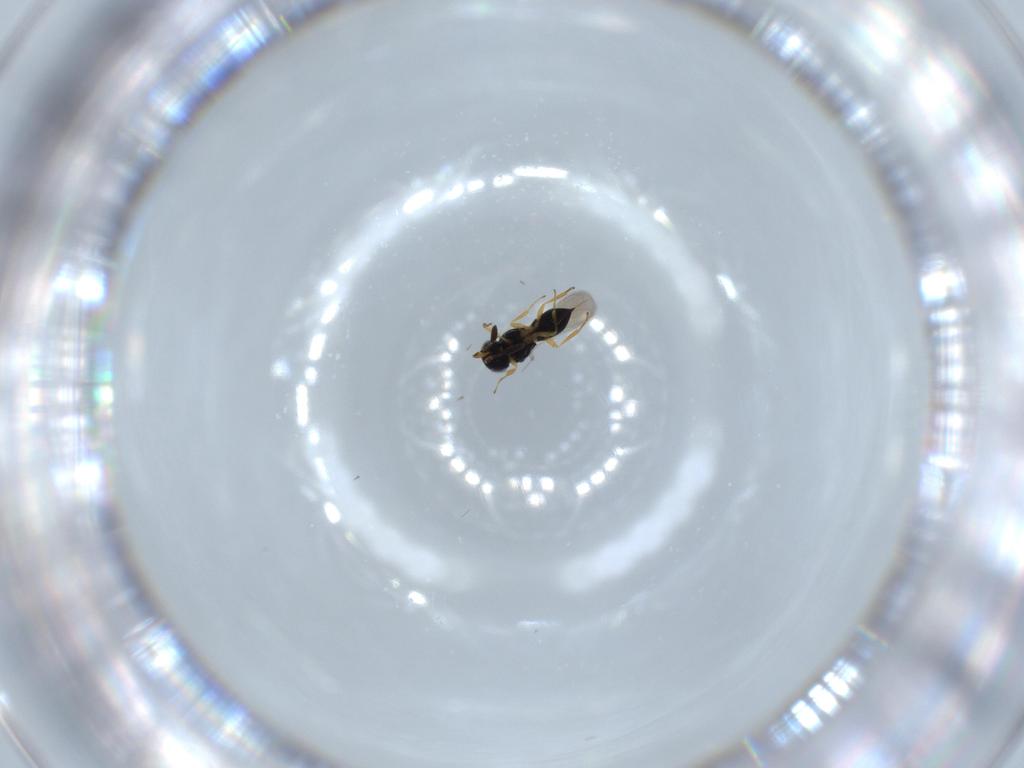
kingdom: Animalia
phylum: Arthropoda
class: Insecta
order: Hymenoptera
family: Scelionidae
